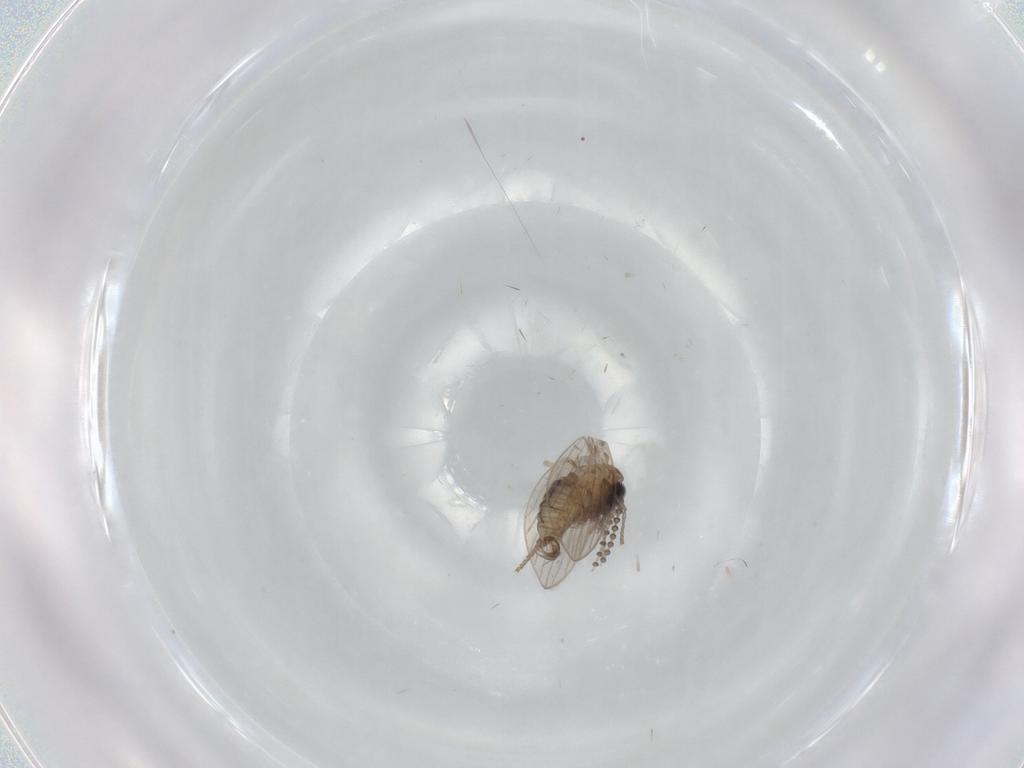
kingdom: Animalia
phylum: Arthropoda
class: Insecta
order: Diptera
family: Psychodidae
